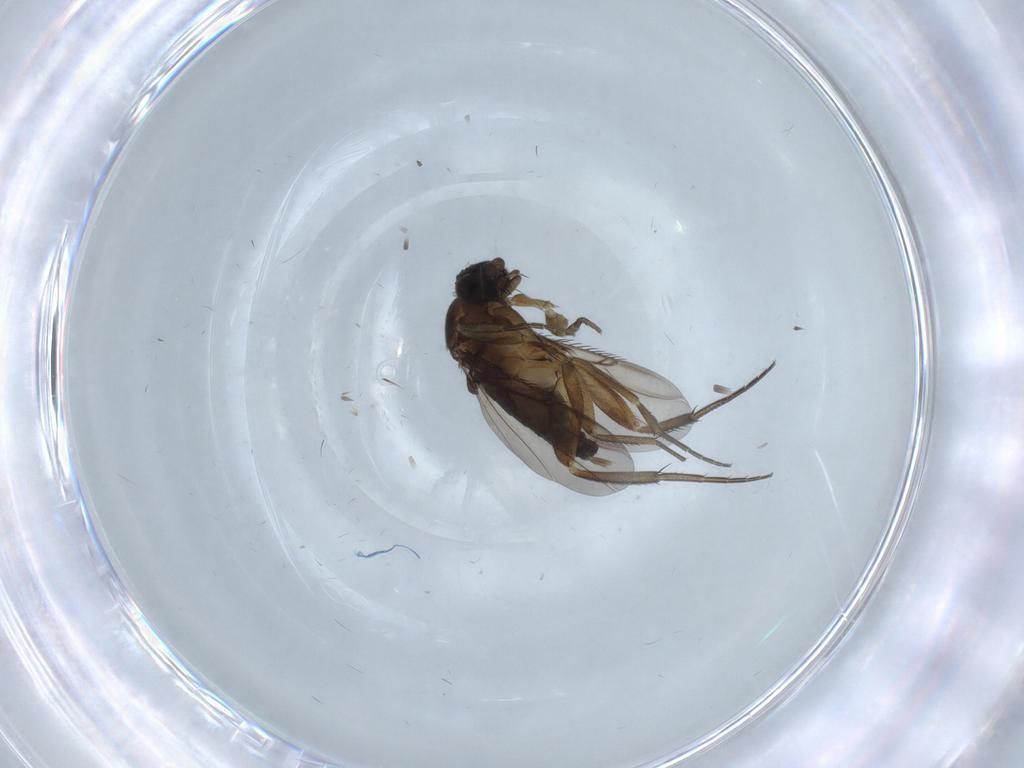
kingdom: Animalia
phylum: Arthropoda
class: Insecta
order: Diptera
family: Phoridae
